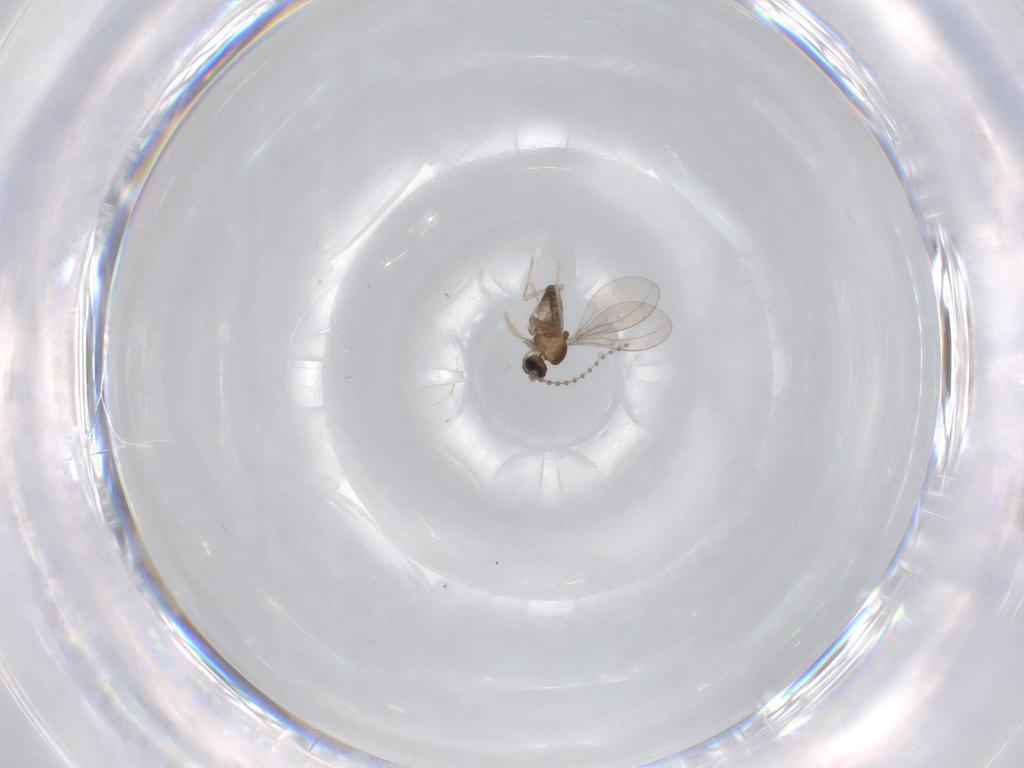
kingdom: Animalia
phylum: Arthropoda
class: Insecta
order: Diptera
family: Cecidomyiidae
